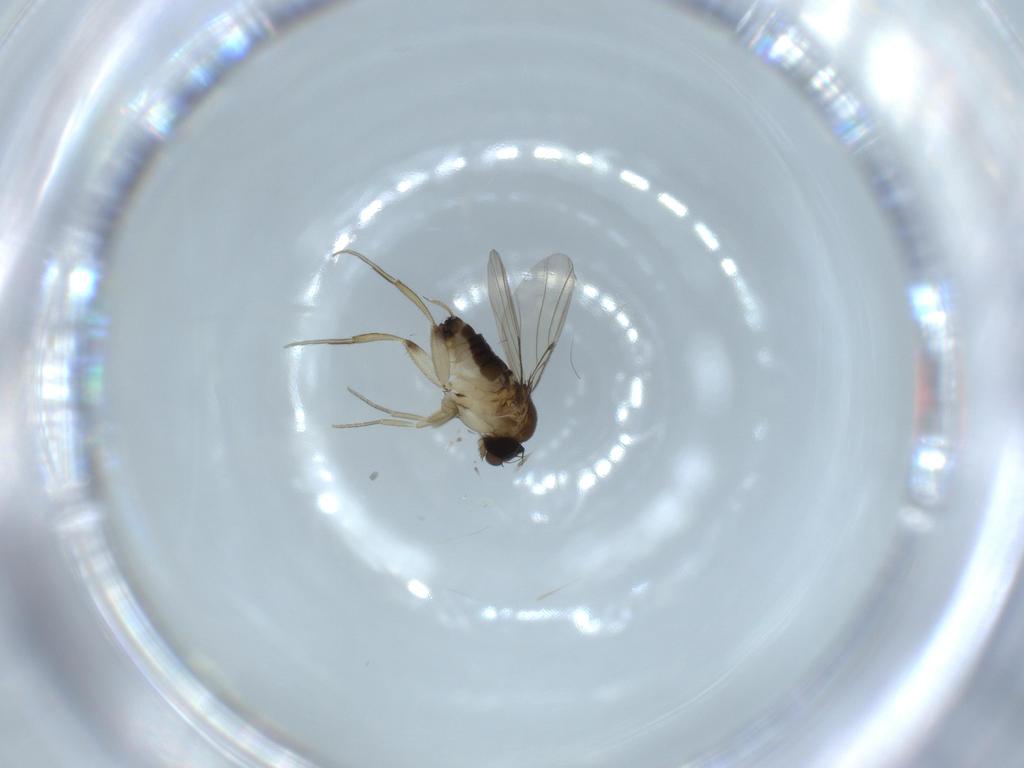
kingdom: Animalia
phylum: Arthropoda
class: Insecta
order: Diptera
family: Phoridae
